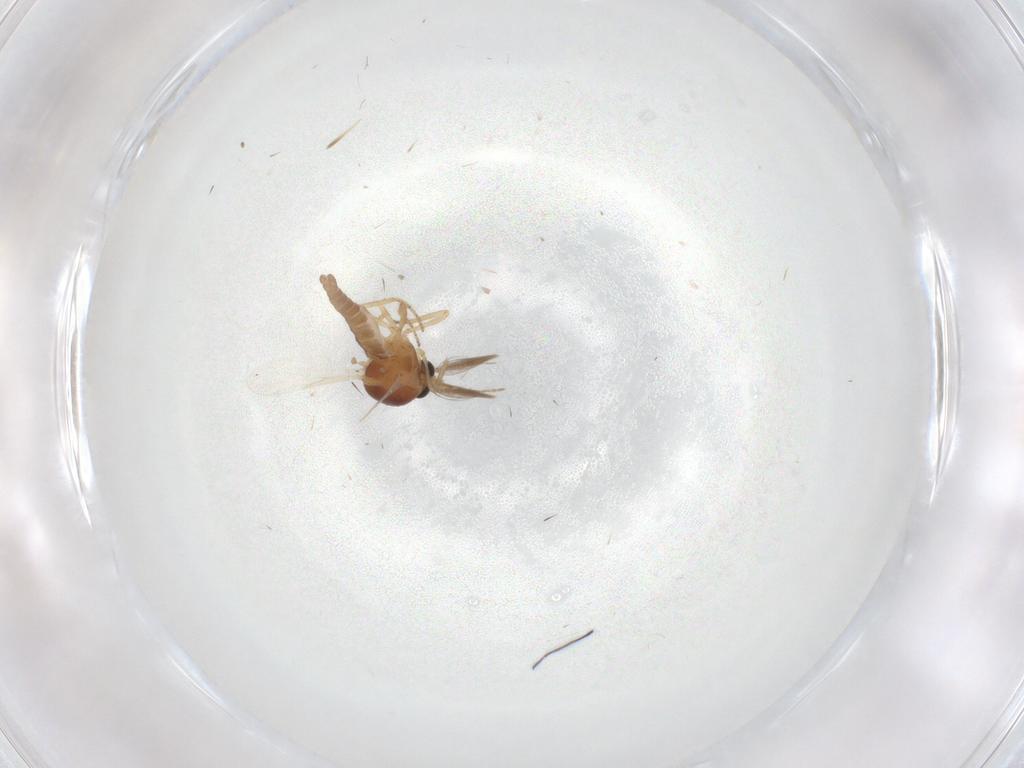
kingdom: Animalia
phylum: Arthropoda
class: Insecta
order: Diptera
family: Ceratopogonidae
